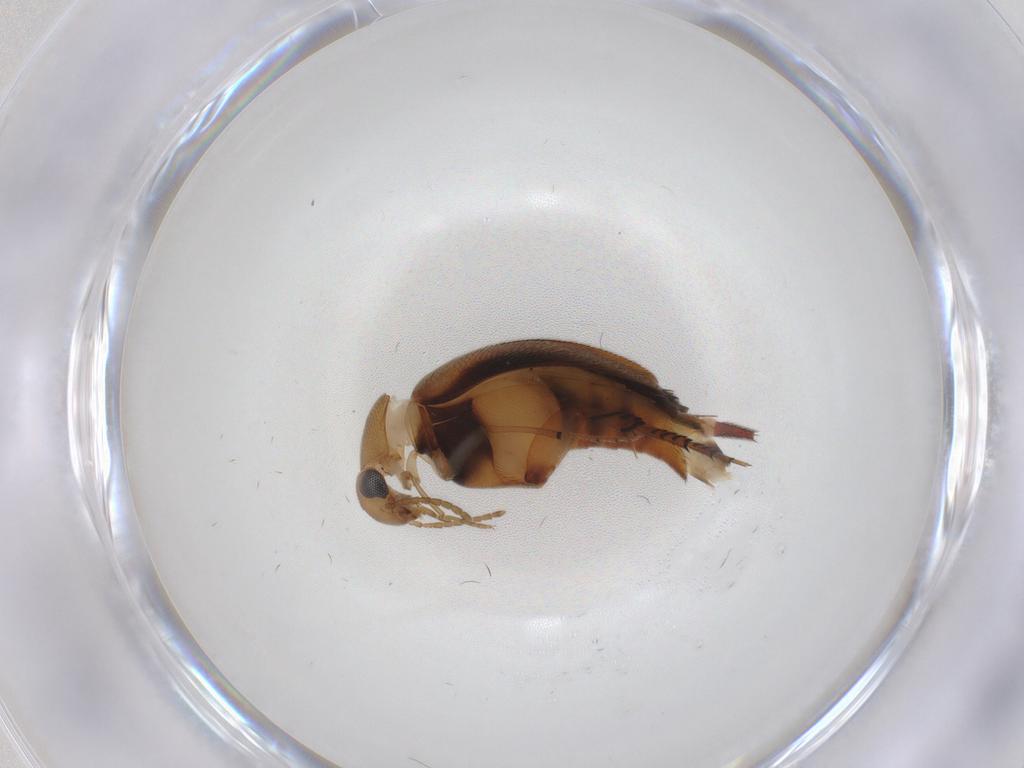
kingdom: Animalia
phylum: Arthropoda
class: Insecta
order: Coleoptera
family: Mordellidae
